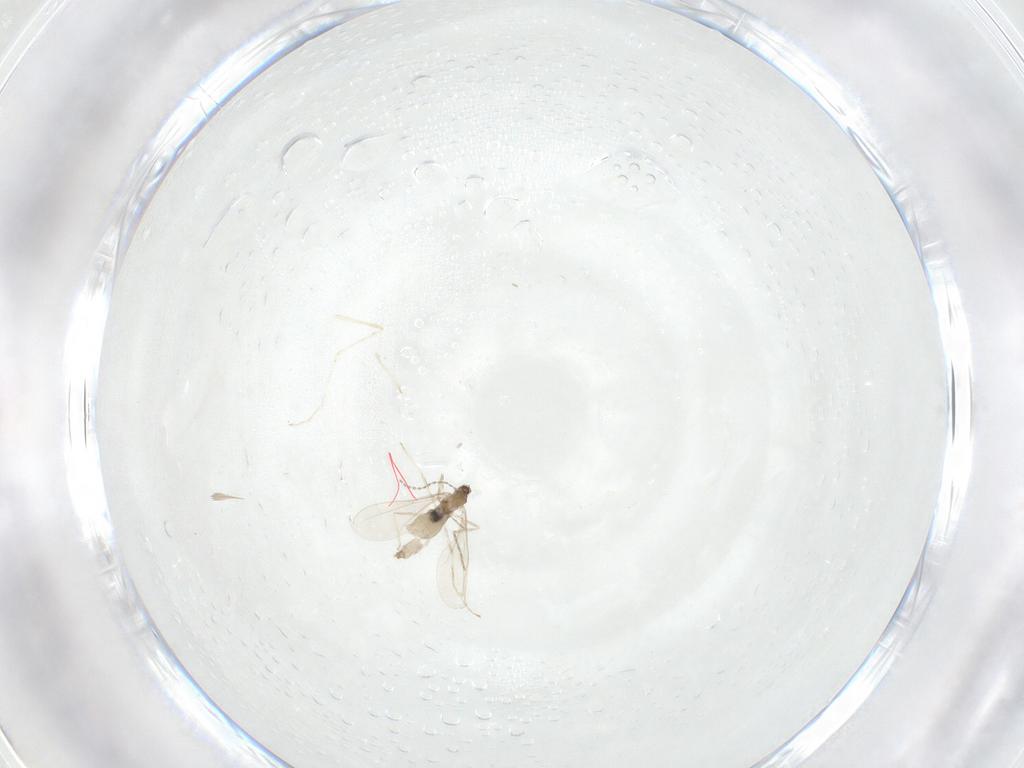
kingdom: Animalia
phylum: Arthropoda
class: Insecta
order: Diptera
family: Cecidomyiidae
